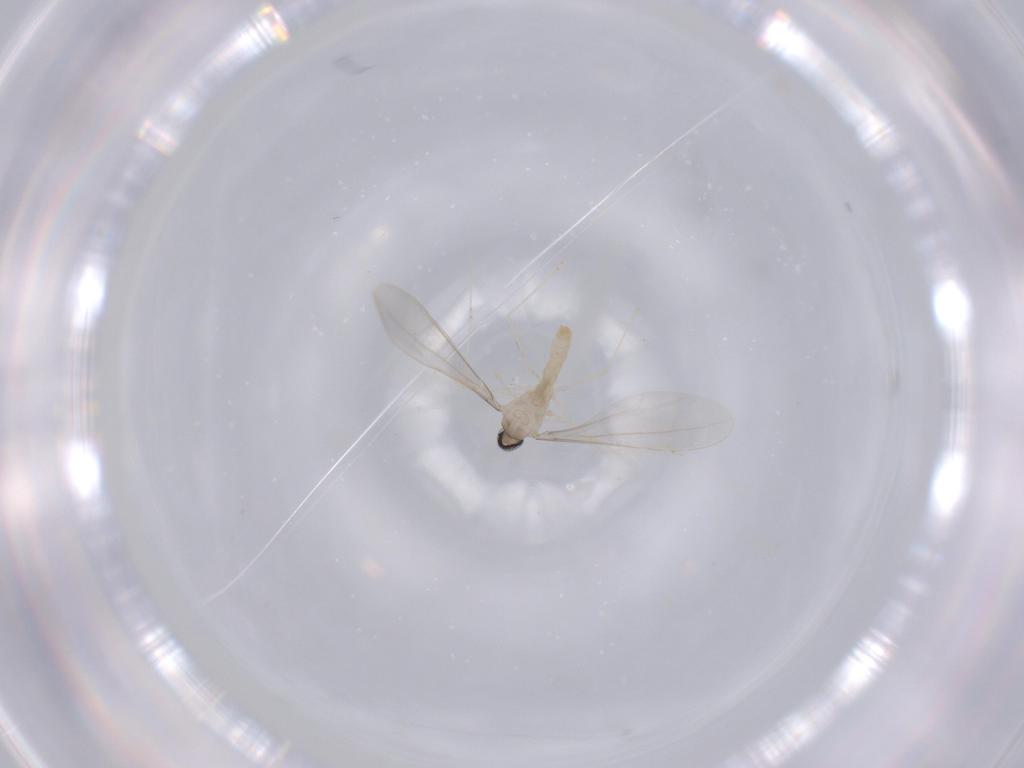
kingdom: Animalia
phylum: Arthropoda
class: Insecta
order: Diptera
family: Cecidomyiidae
